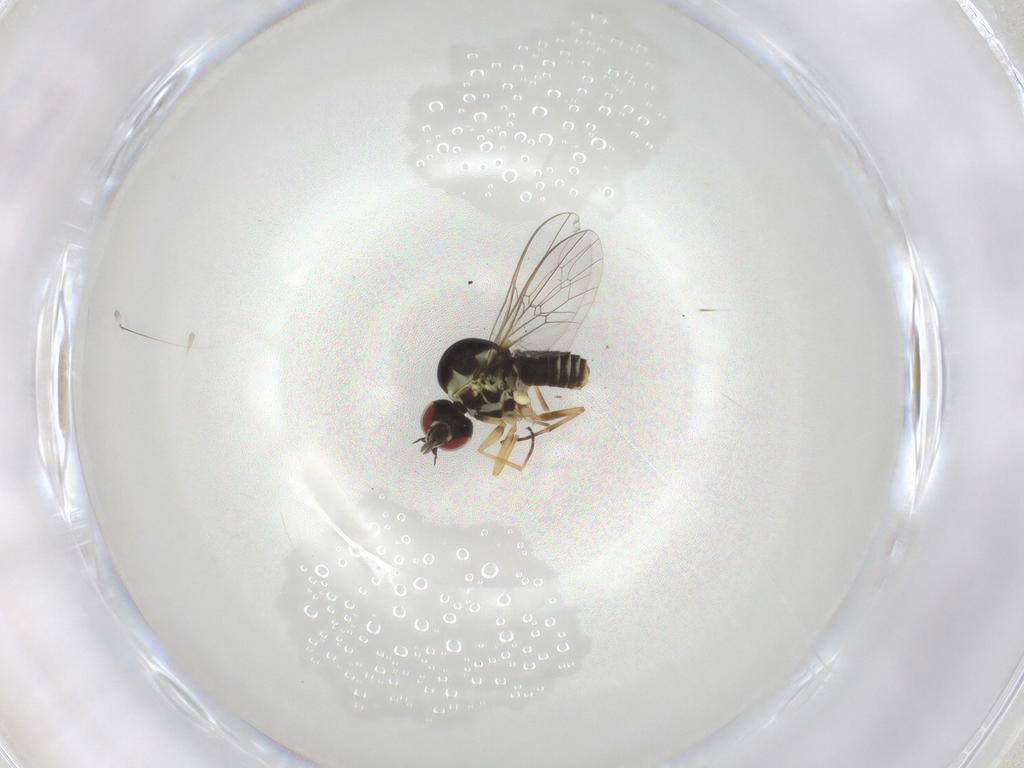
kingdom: Animalia
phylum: Arthropoda
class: Insecta
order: Diptera
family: Bombyliidae
